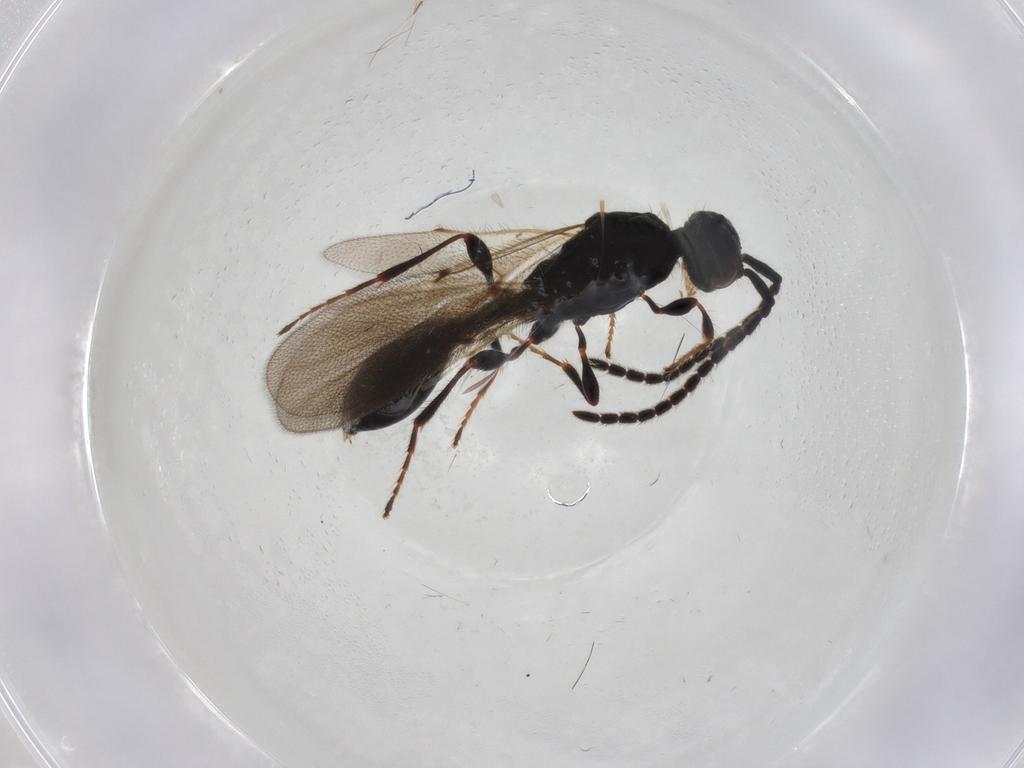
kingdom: Animalia
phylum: Arthropoda
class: Insecta
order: Hymenoptera
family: Diapriidae
